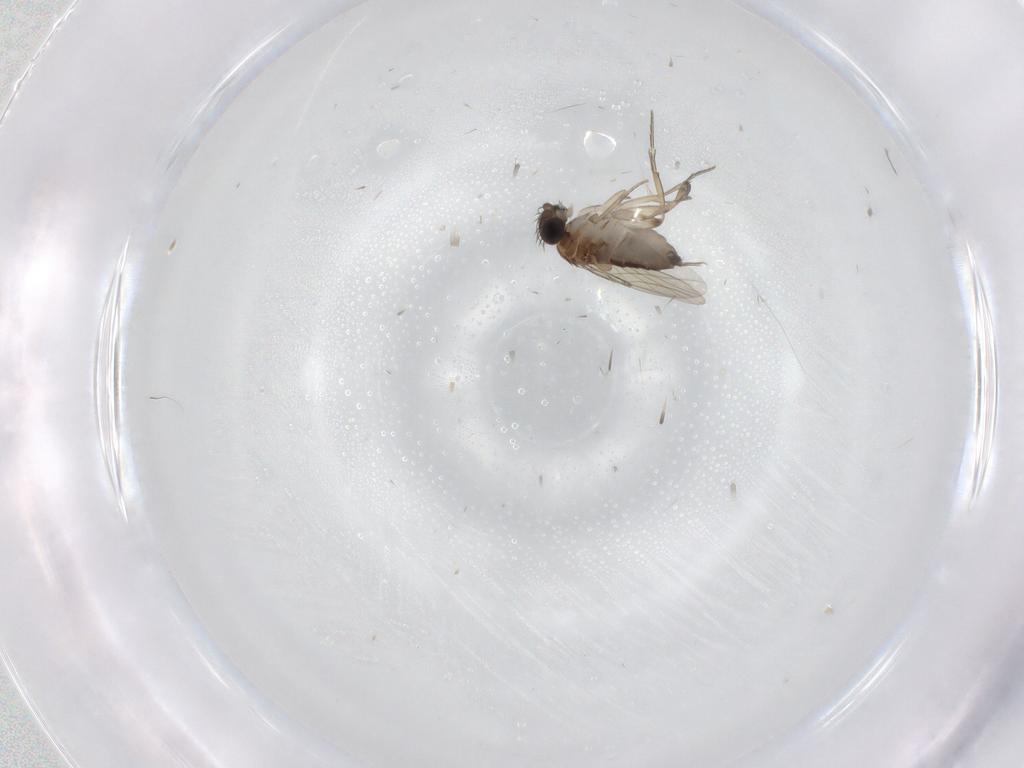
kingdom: Animalia
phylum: Arthropoda
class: Insecta
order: Diptera
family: Phoridae
